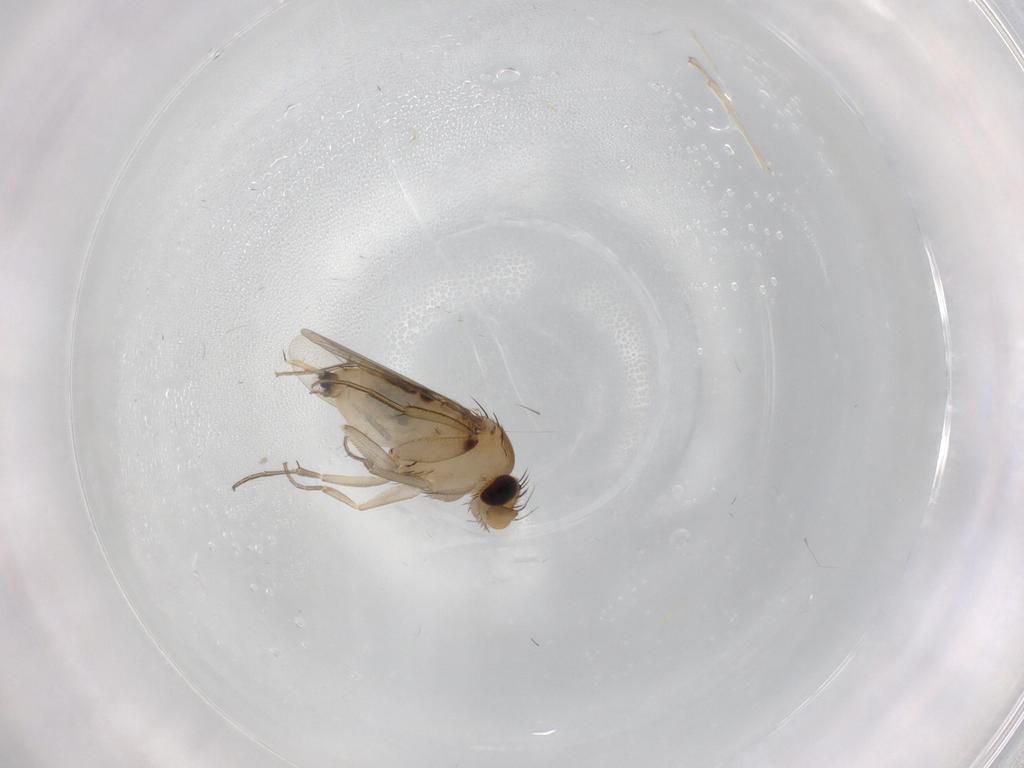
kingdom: Animalia
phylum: Arthropoda
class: Insecta
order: Diptera
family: Phoridae
